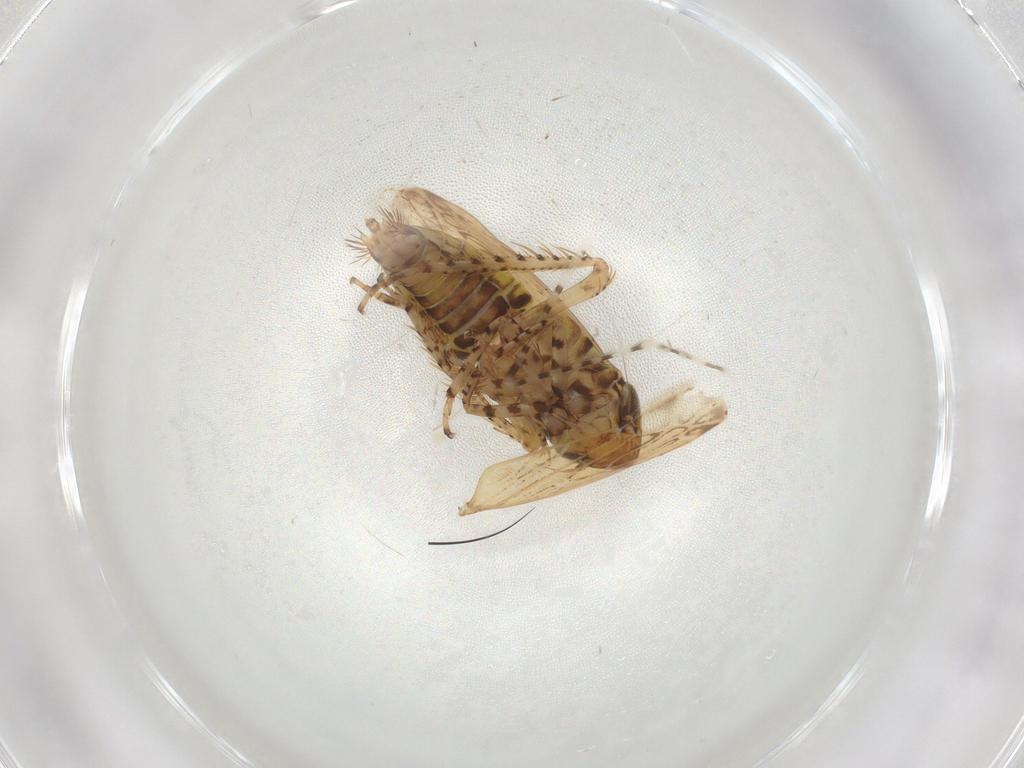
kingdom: Animalia
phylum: Arthropoda
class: Insecta
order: Hemiptera
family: Cicadellidae
